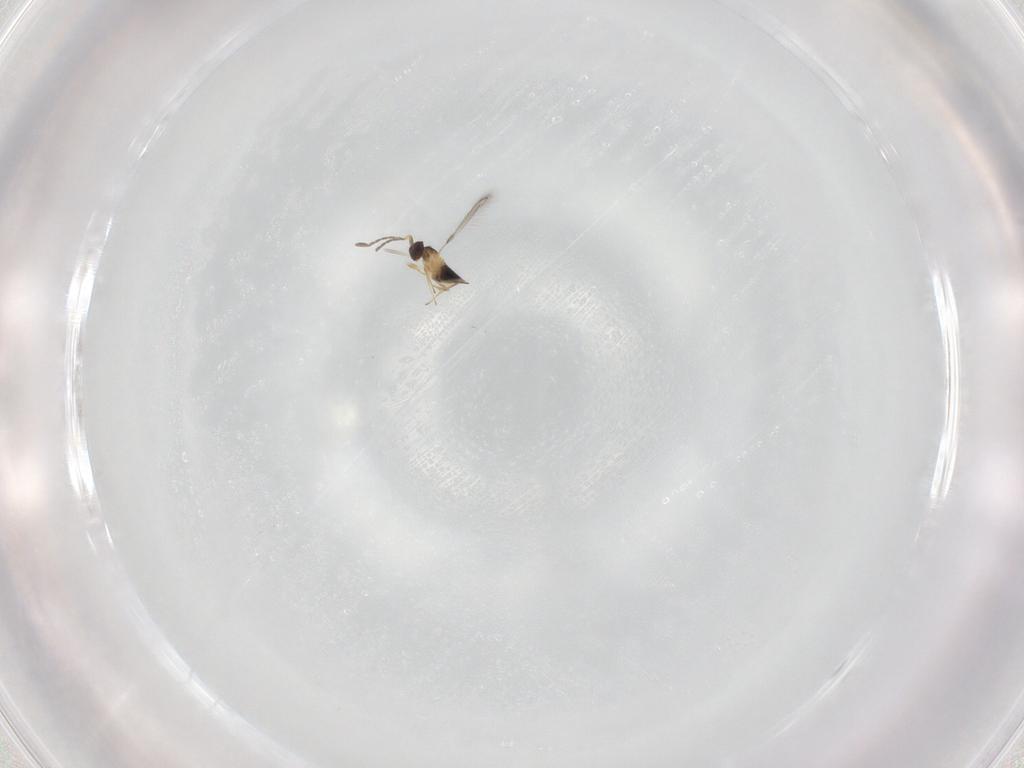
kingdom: Animalia
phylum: Arthropoda
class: Insecta
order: Hymenoptera
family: Mymaridae
